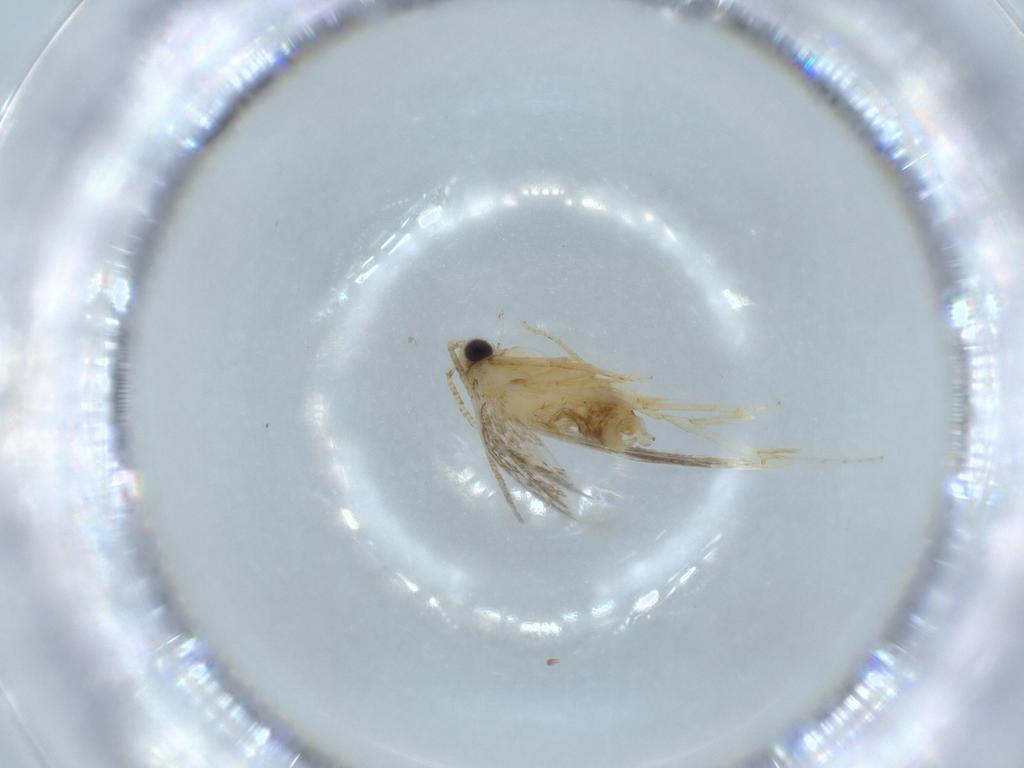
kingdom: Animalia
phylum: Arthropoda
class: Insecta
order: Lepidoptera
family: Tineidae
